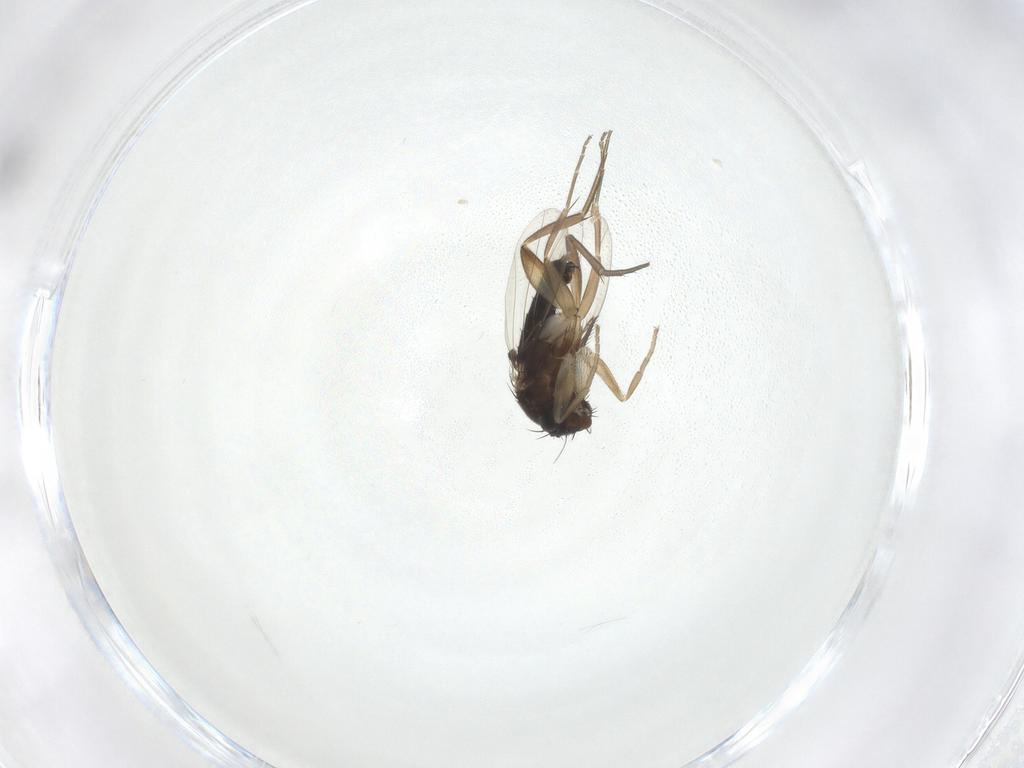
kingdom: Animalia
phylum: Arthropoda
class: Insecta
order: Diptera
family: Phoridae
